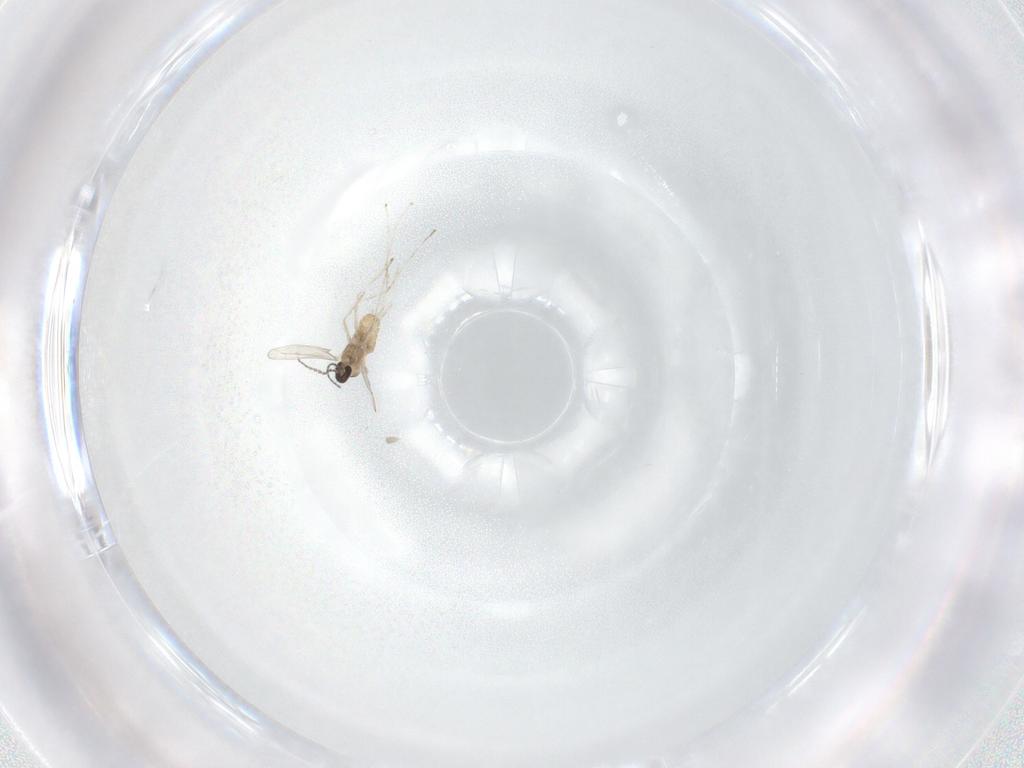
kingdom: Animalia
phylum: Arthropoda
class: Insecta
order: Diptera
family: Cecidomyiidae
